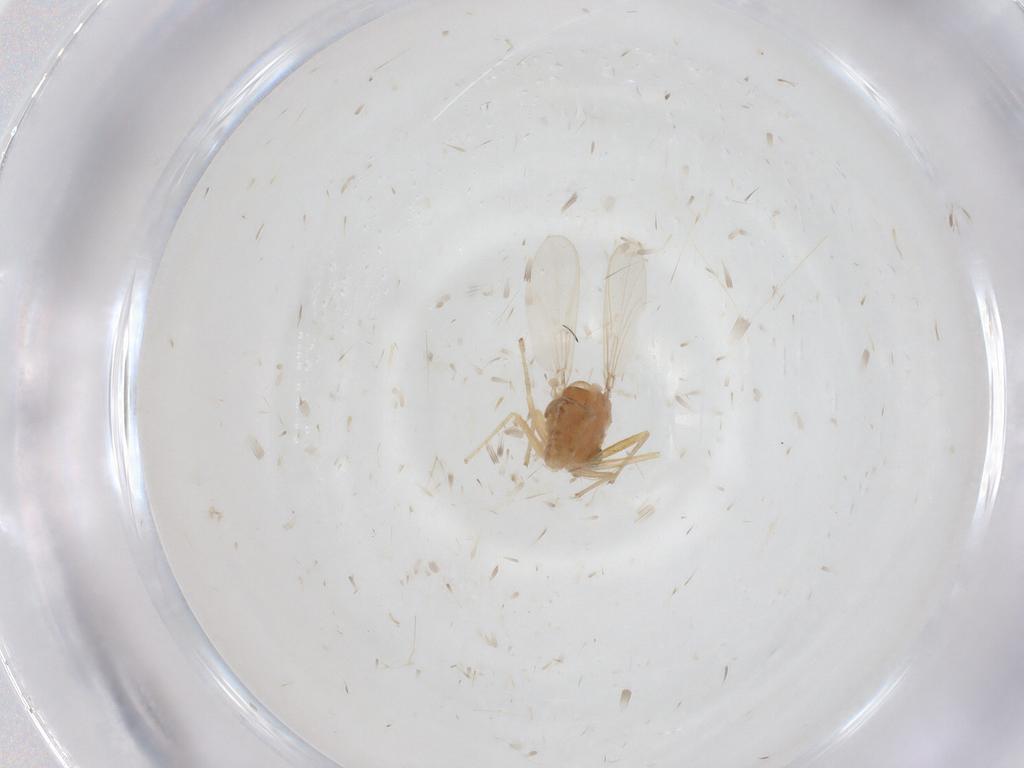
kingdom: Animalia
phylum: Arthropoda
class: Insecta
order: Diptera
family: Chironomidae
